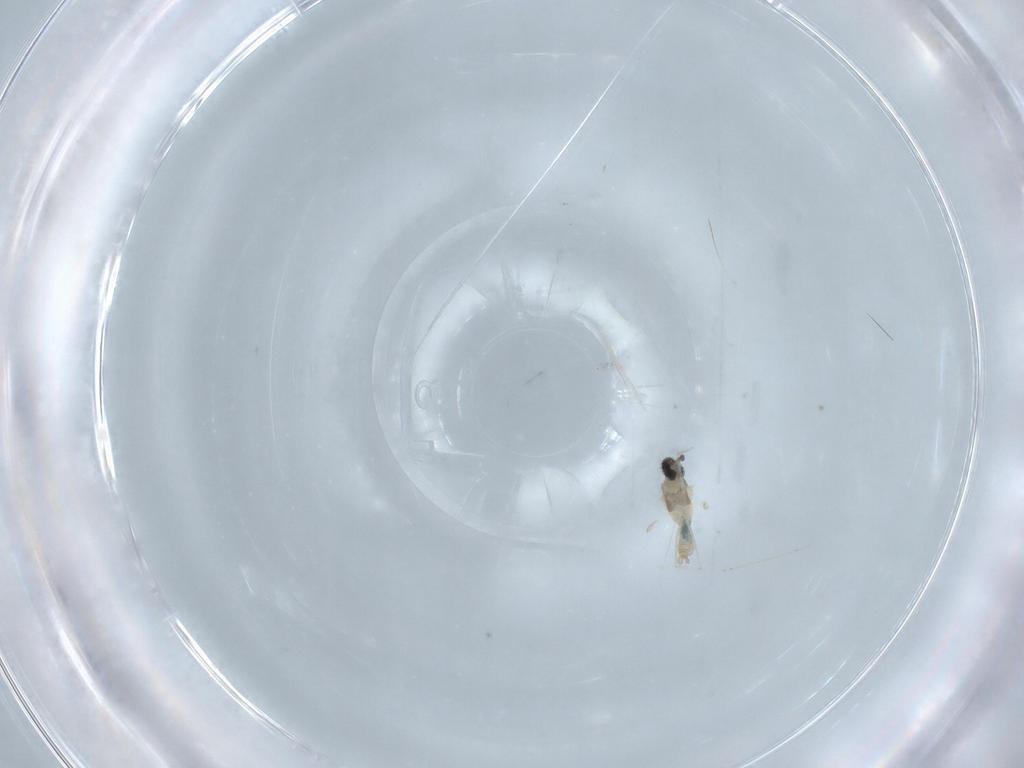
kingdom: Animalia
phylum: Arthropoda
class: Insecta
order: Diptera
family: Cecidomyiidae
